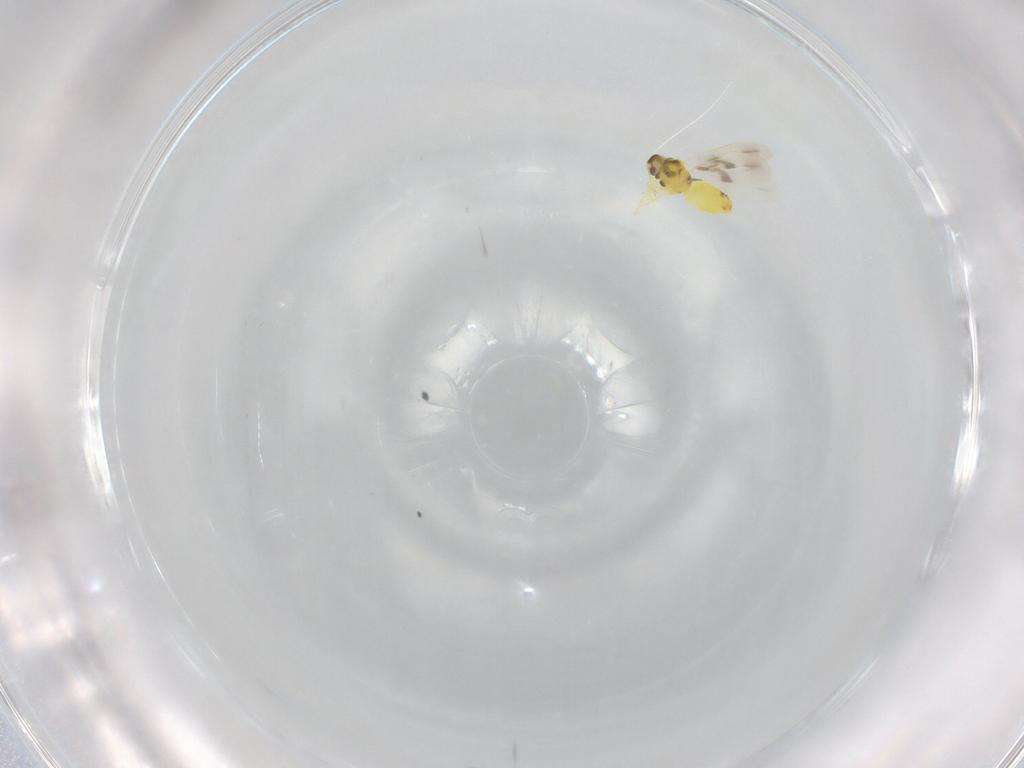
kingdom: Animalia
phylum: Arthropoda
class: Insecta
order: Hemiptera
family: Aleyrodidae
